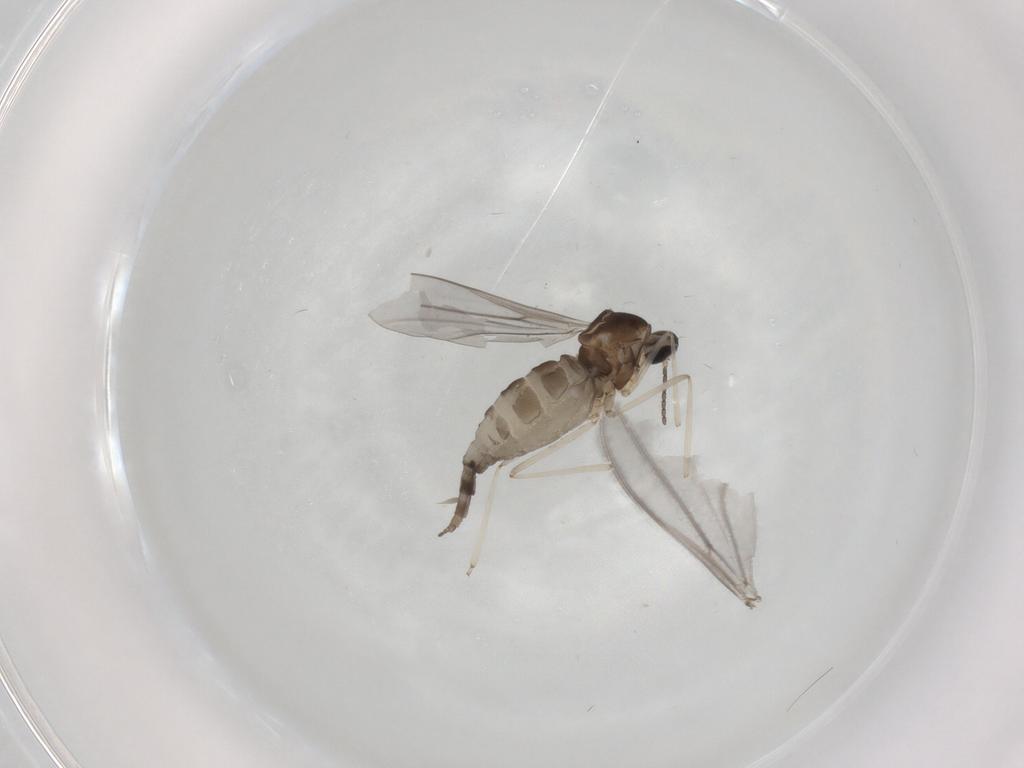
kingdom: Animalia
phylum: Arthropoda
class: Insecta
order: Diptera
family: Cecidomyiidae
